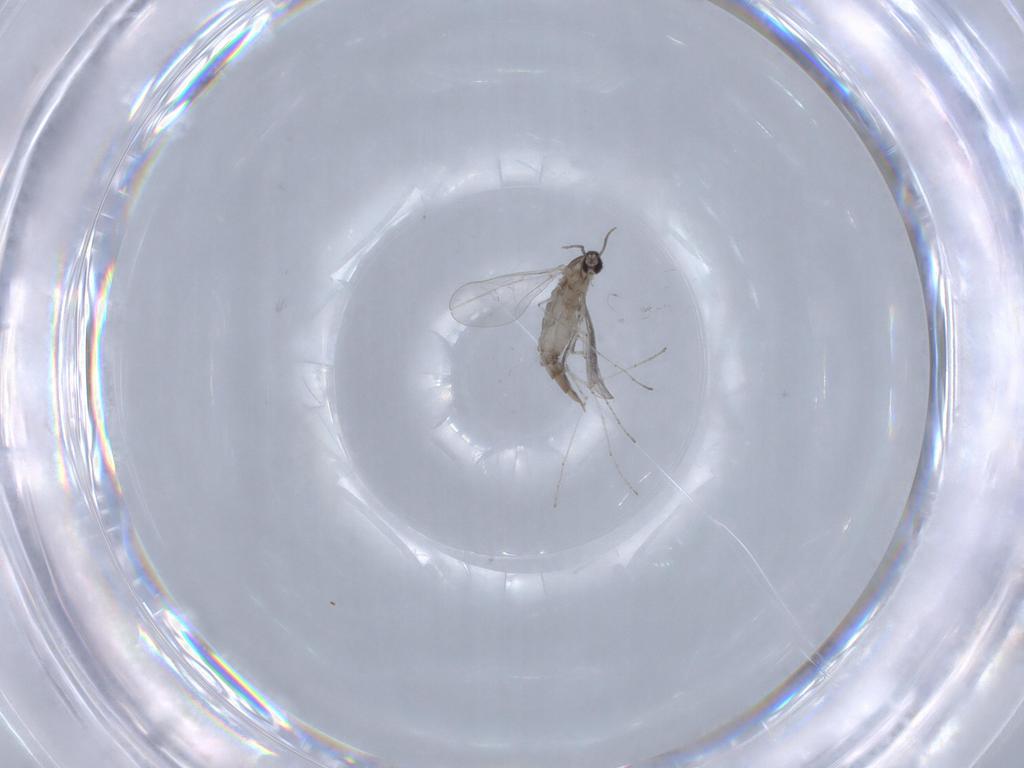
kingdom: Animalia
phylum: Arthropoda
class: Insecta
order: Diptera
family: Cecidomyiidae
